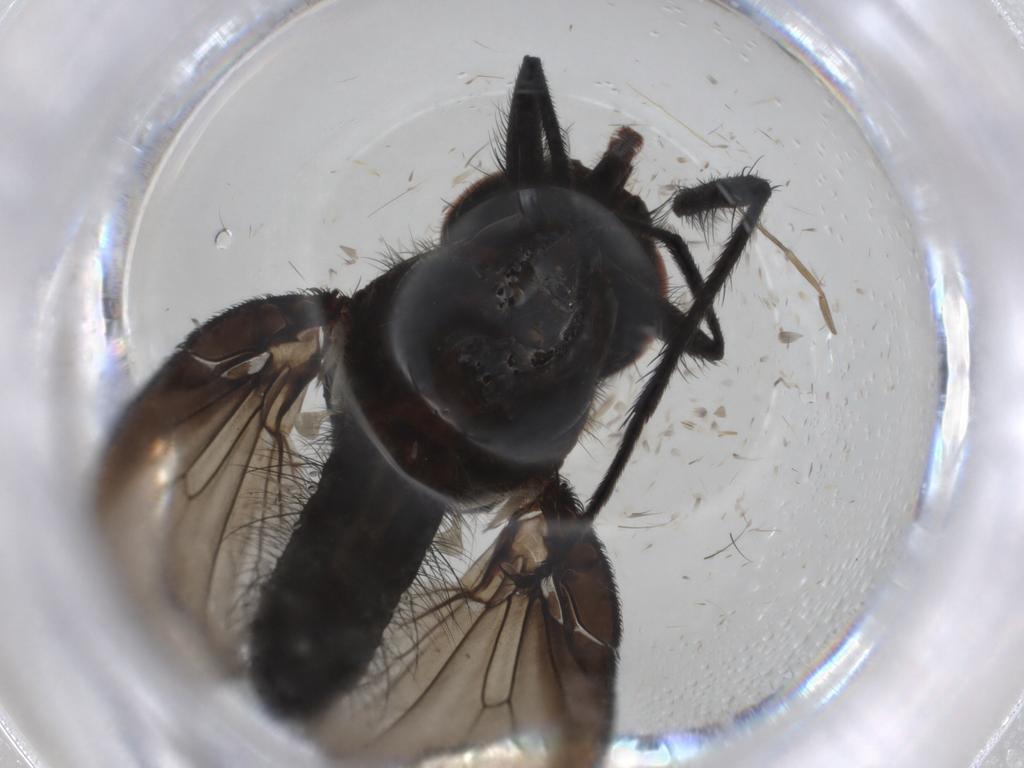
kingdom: Animalia
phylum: Arthropoda
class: Insecta
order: Diptera
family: Anthomyiidae
